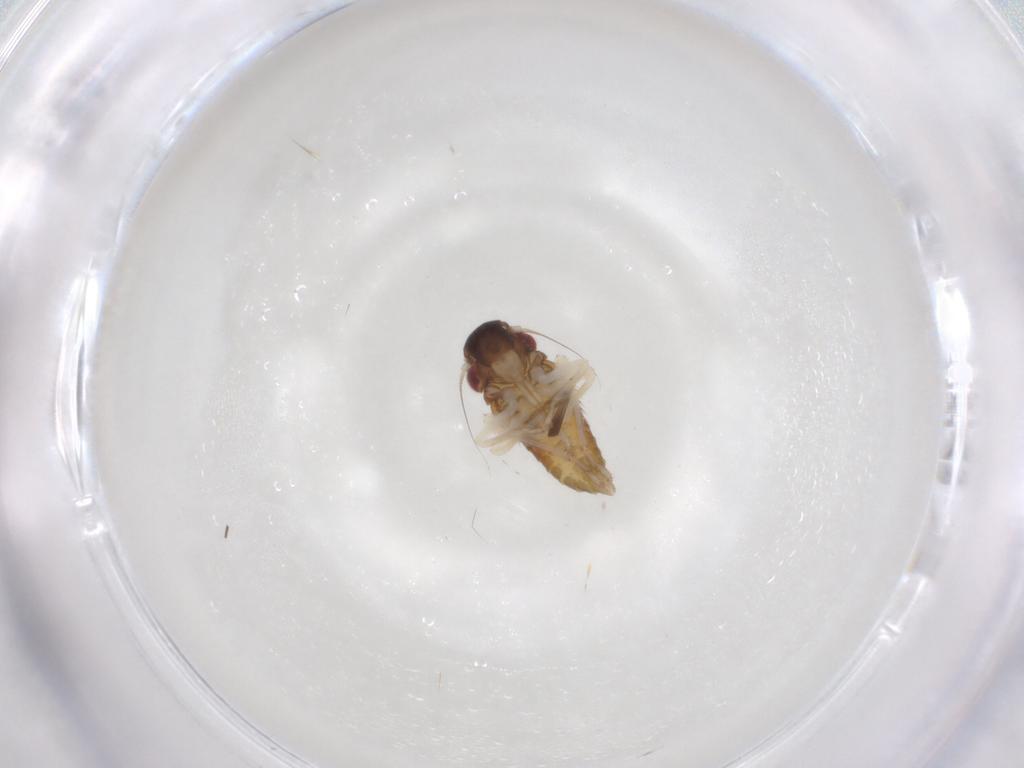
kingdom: Animalia
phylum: Arthropoda
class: Insecta
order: Hemiptera
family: Cicadellidae
